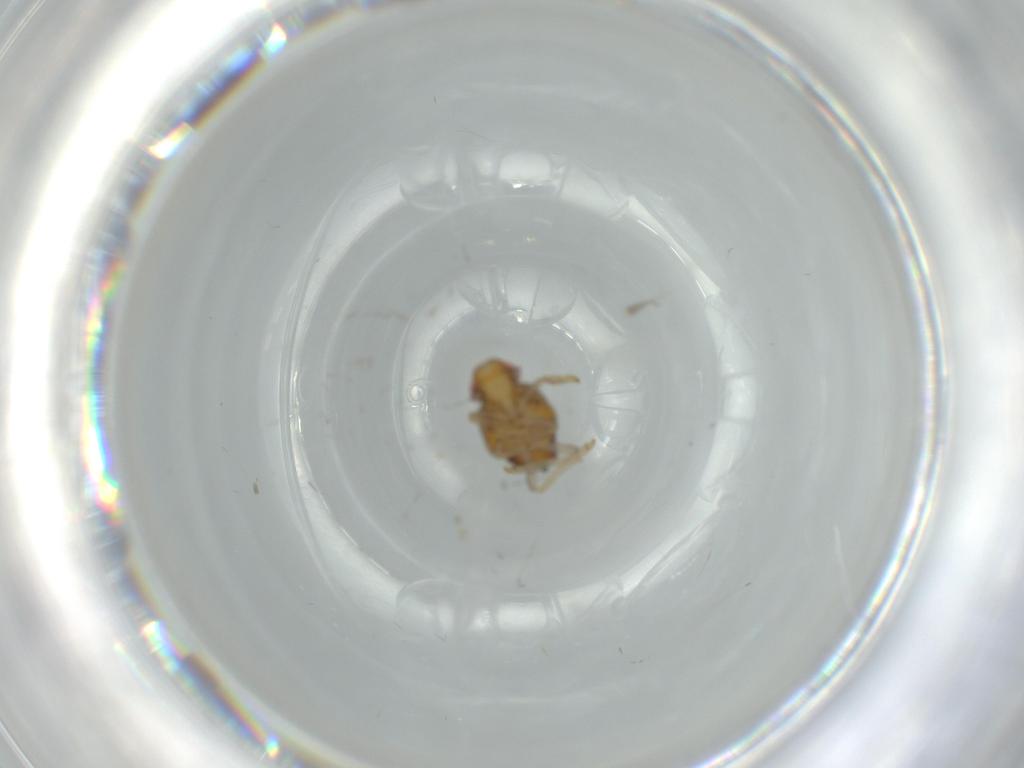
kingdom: Animalia
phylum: Arthropoda
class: Insecta
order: Hemiptera
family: Issidae
